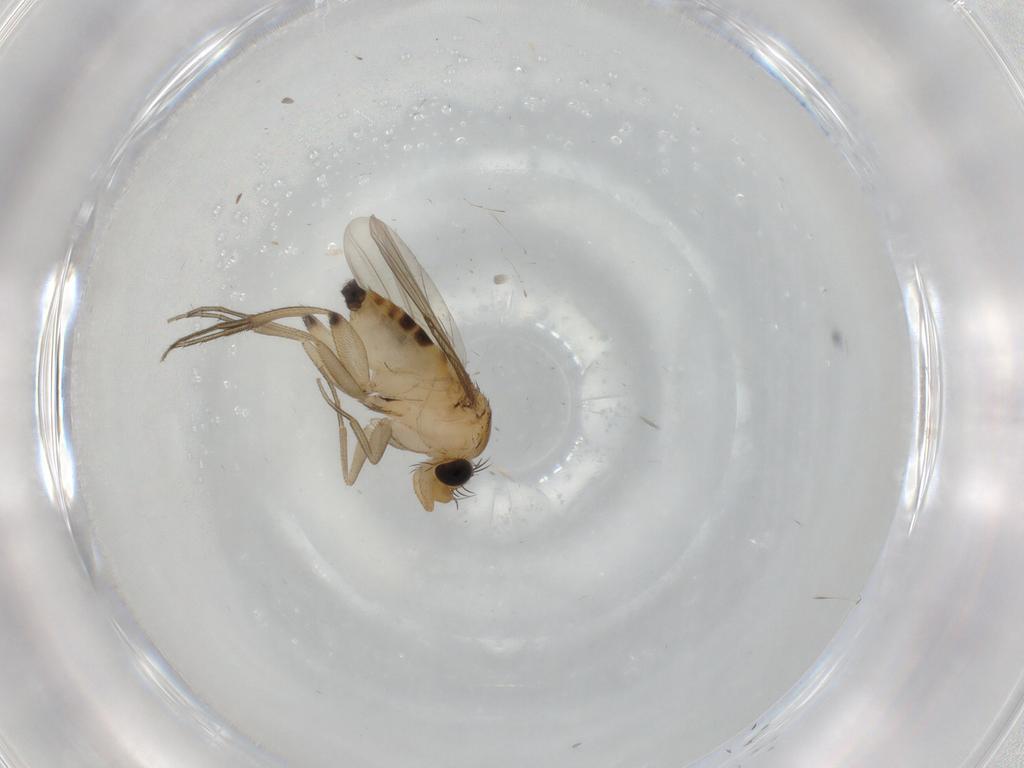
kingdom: Animalia
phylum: Arthropoda
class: Insecta
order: Diptera
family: Phoridae
